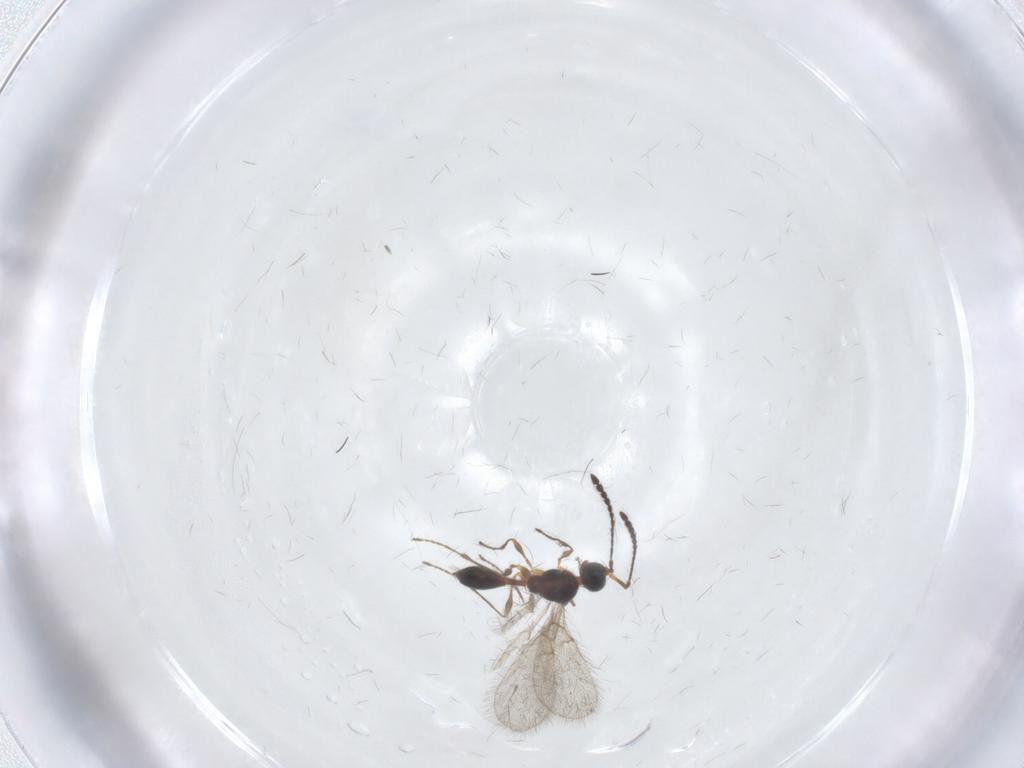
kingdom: Animalia
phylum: Arthropoda
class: Insecta
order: Hymenoptera
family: Diapriidae
